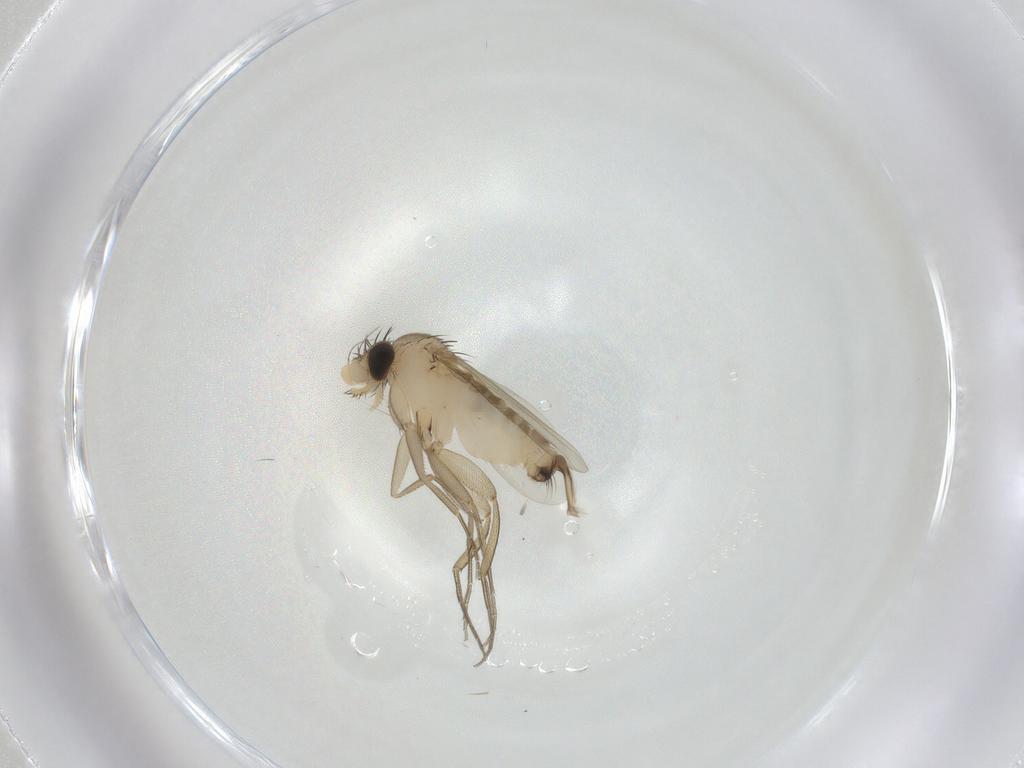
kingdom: Animalia
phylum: Arthropoda
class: Insecta
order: Diptera
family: Phoridae
